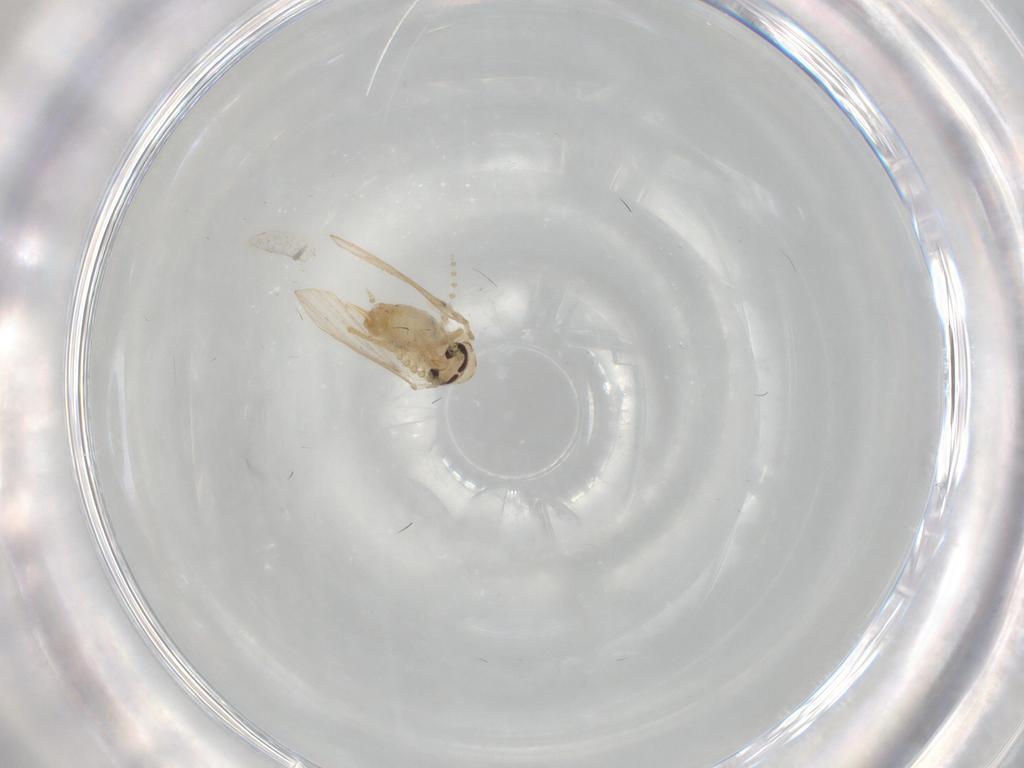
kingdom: Animalia
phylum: Arthropoda
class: Insecta
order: Diptera
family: Psychodidae
